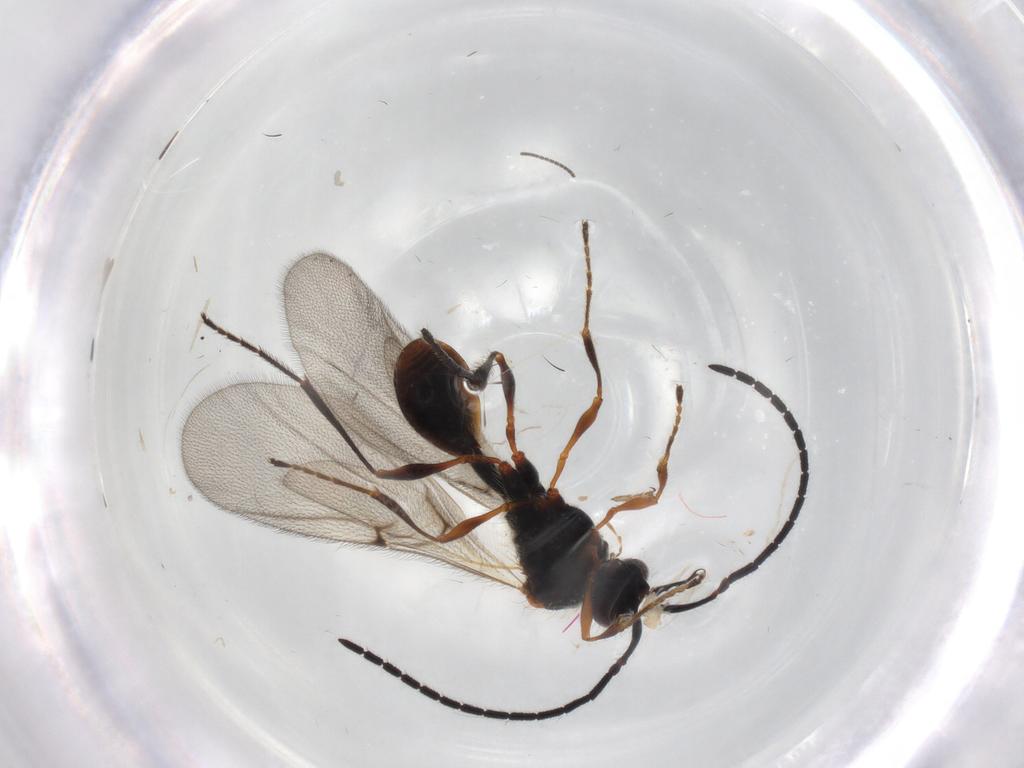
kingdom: Animalia
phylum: Arthropoda
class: Insecta
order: Hymenoptera
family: Diapriidae
